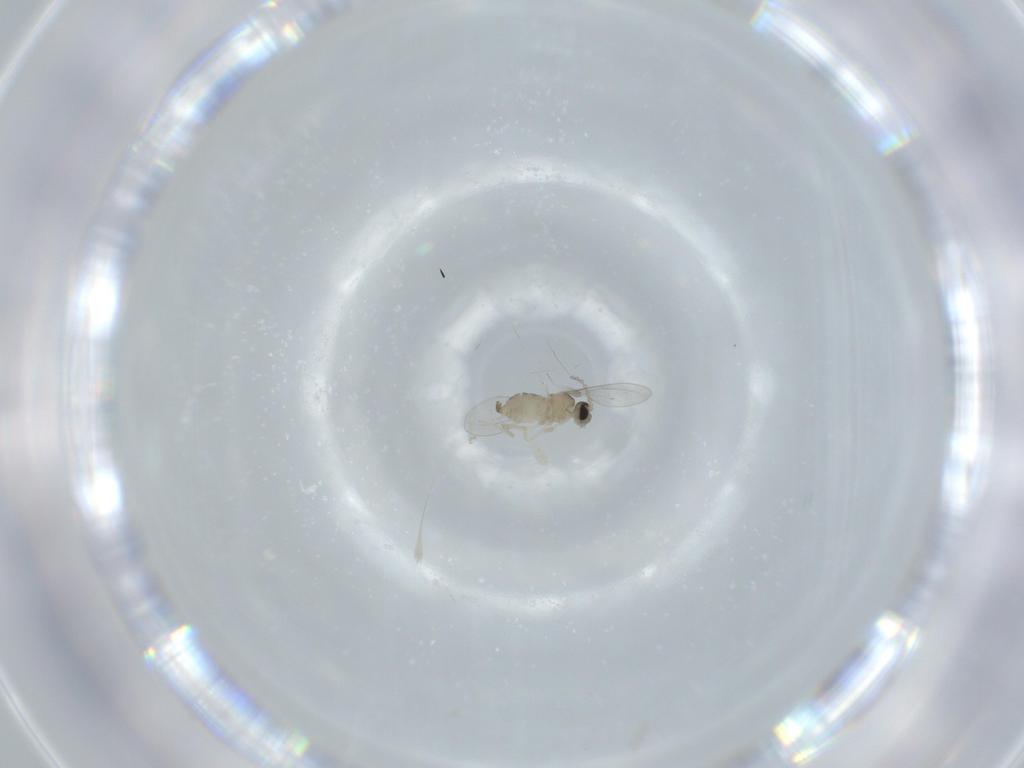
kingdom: Animalia
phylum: Arthropoda
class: Insecta
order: Diptera
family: Cecidomyiidae
